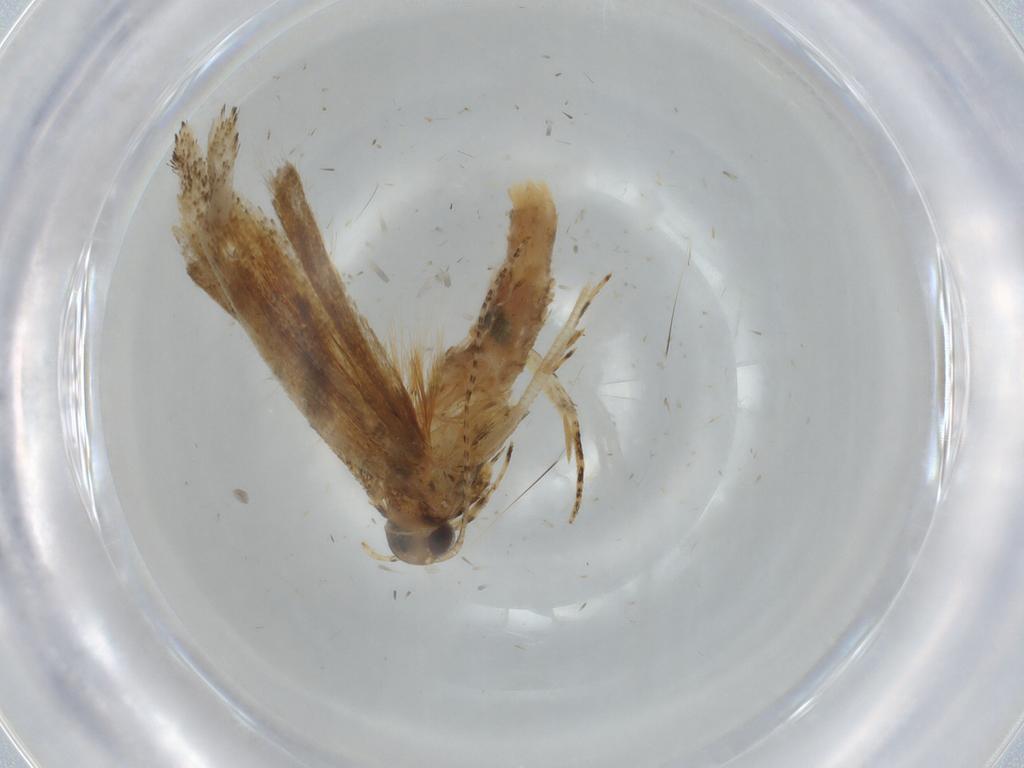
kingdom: Animalia
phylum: Arthropoda
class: Insecta
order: Lepidoptera
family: Gelechiidae
